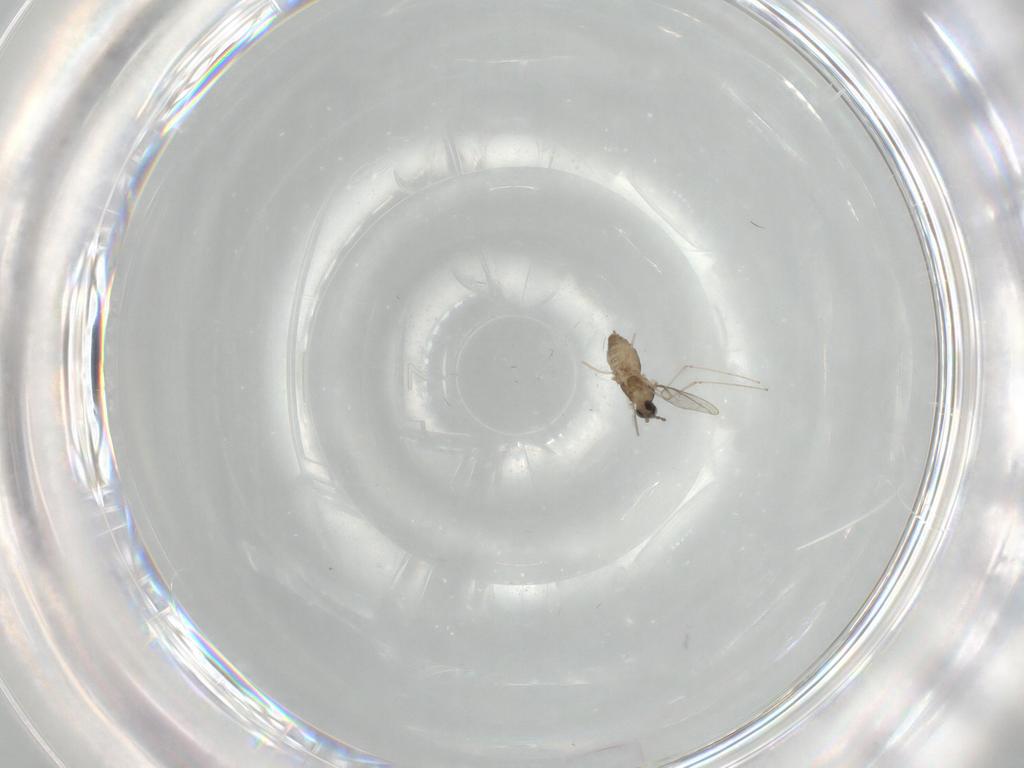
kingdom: Animalia
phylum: Arthropoda
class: Insecta
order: Diptera
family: Cecidomyiidae
